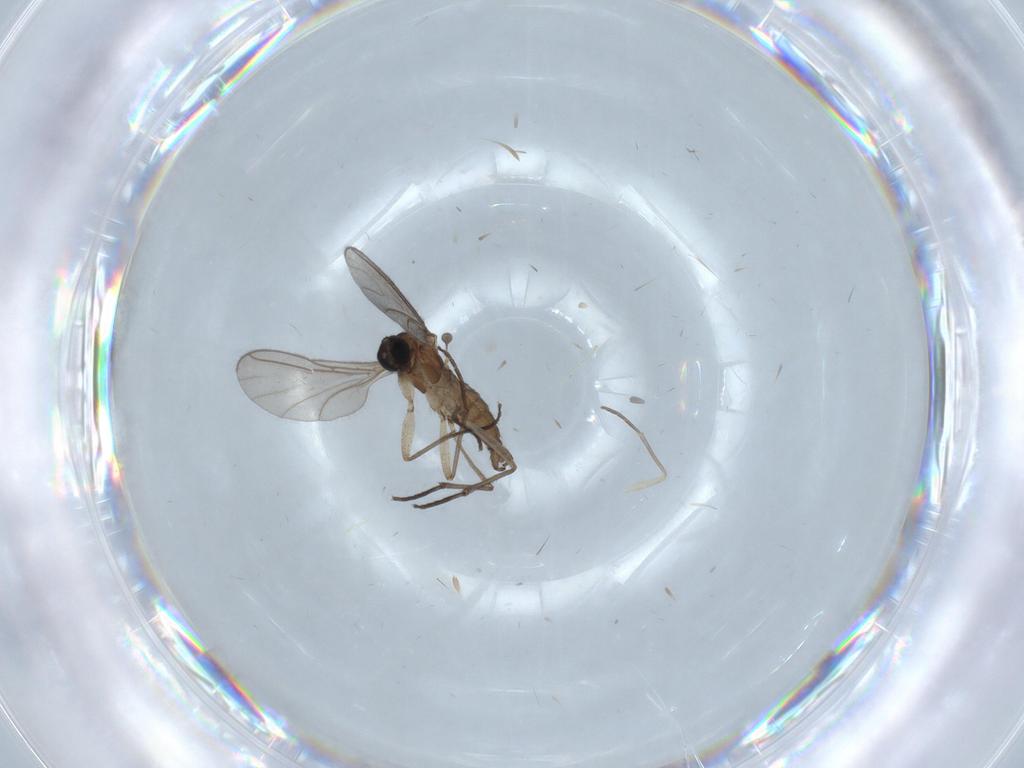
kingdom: Animalia
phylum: Arthropoda
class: Insecta
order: Diptera
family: Sciaridae
